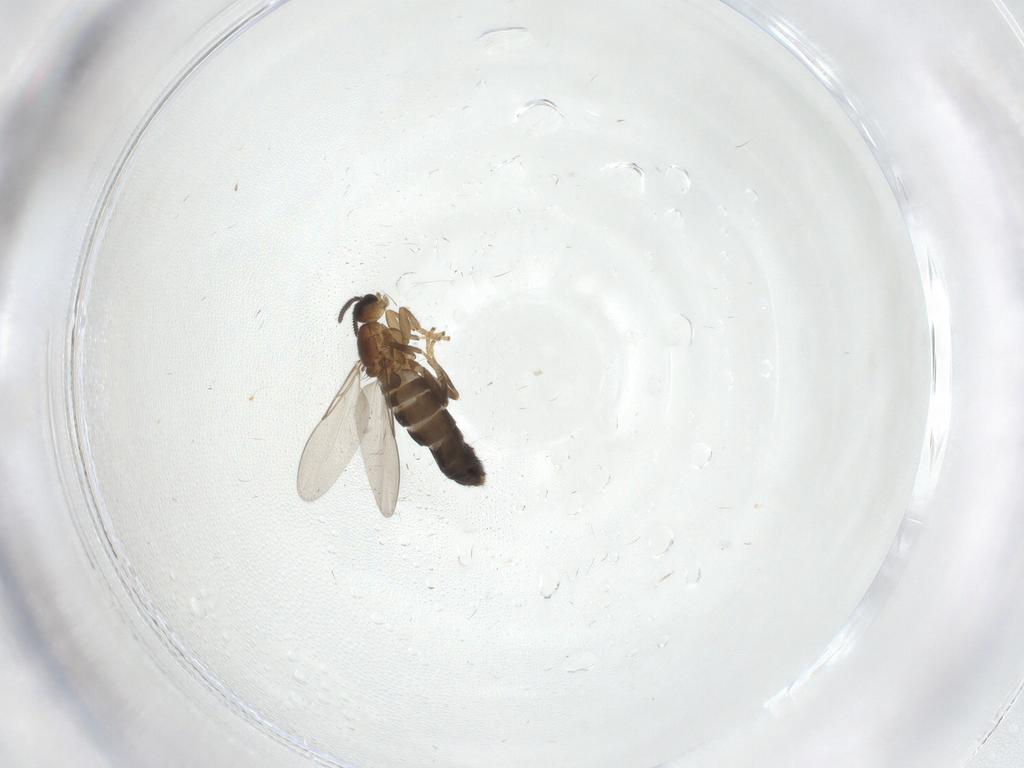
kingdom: Animalia
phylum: Arthropoda
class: Insecta
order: Diptera
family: Scatopsidae
